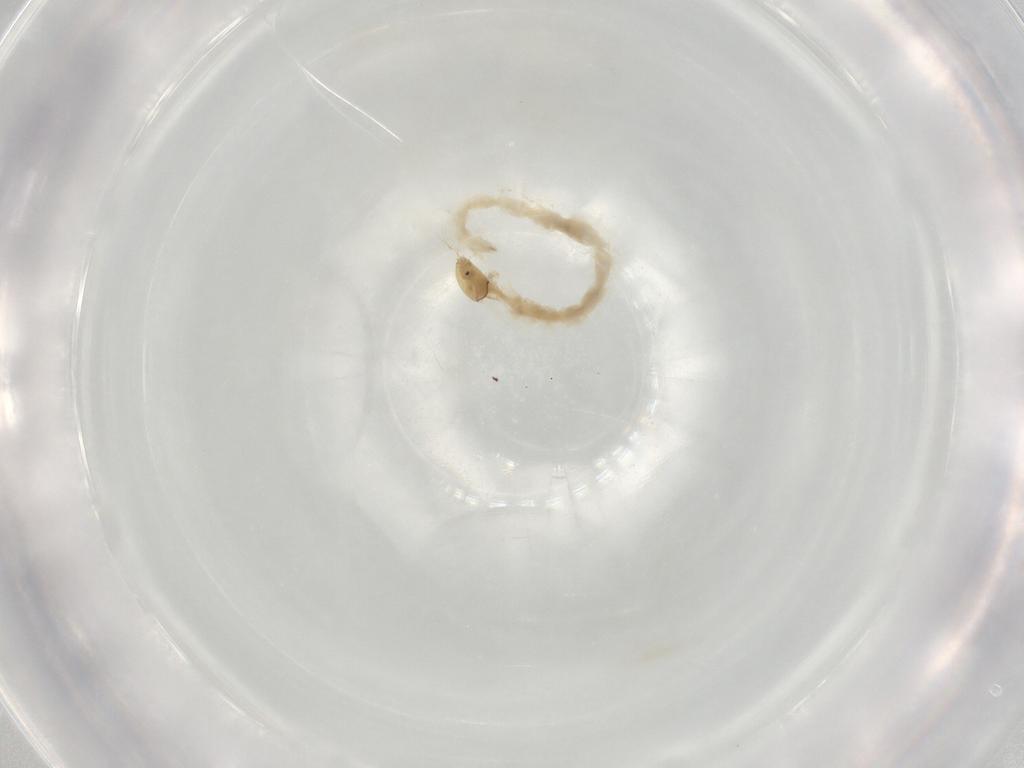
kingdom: Animalia
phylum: Arthropoda
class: Insecta
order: Diptera
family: Chironomidae
